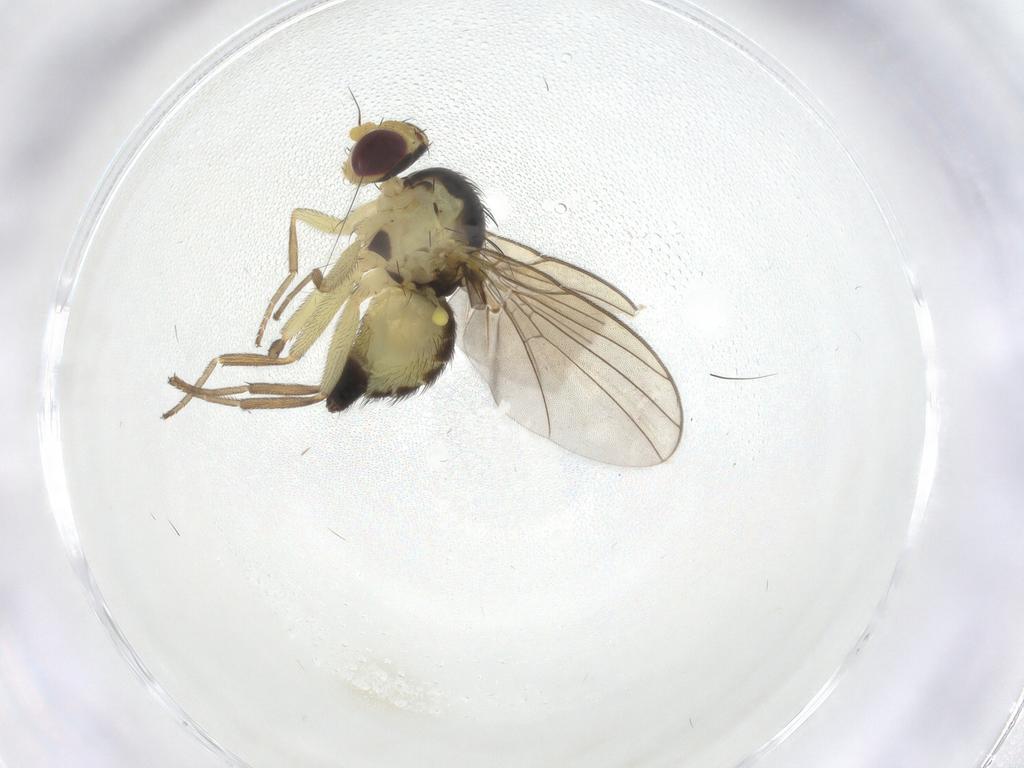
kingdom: Animalia
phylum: Arthropoda
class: Insecta
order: Diptera
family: Agromyzidae
